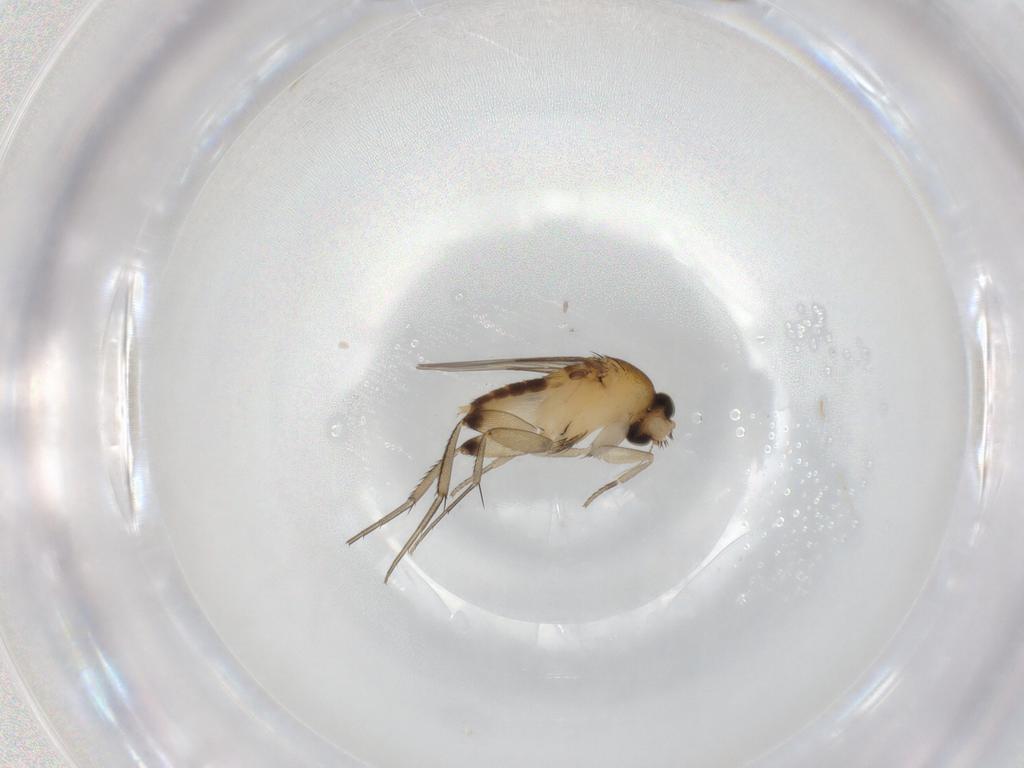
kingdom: Animalia
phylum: Arthropoda
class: Insecta
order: Diptera
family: Phoridae
